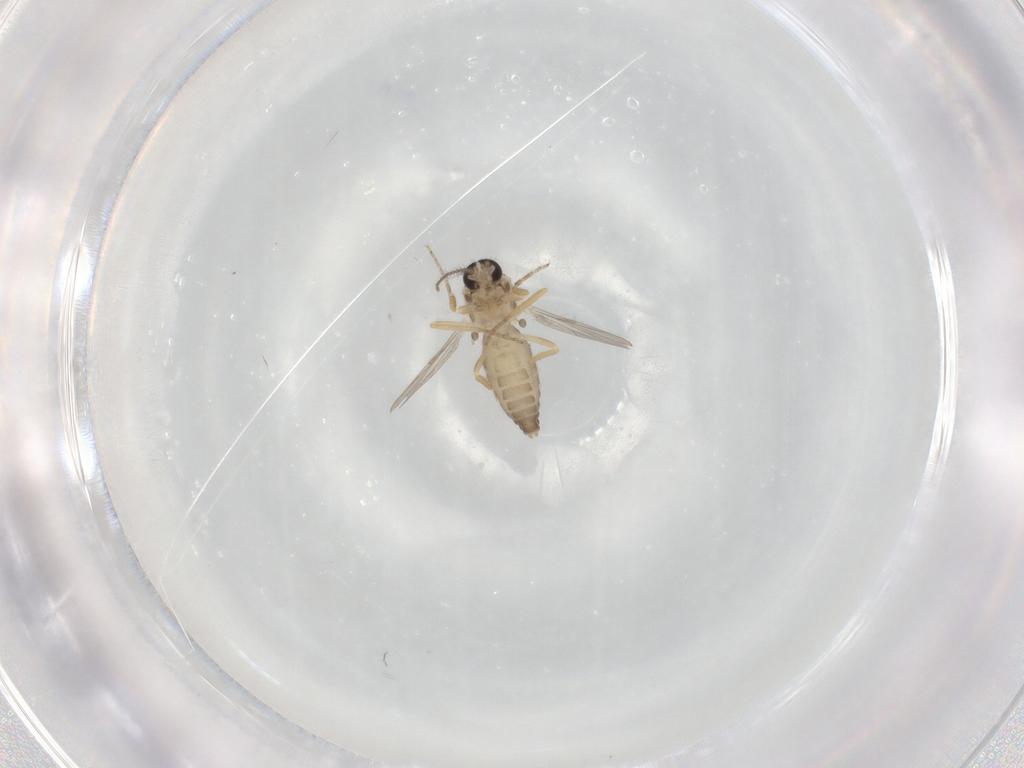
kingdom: Animalia
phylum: Arthropoda
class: Insecta
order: Diptera
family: Ceratopogonidae
